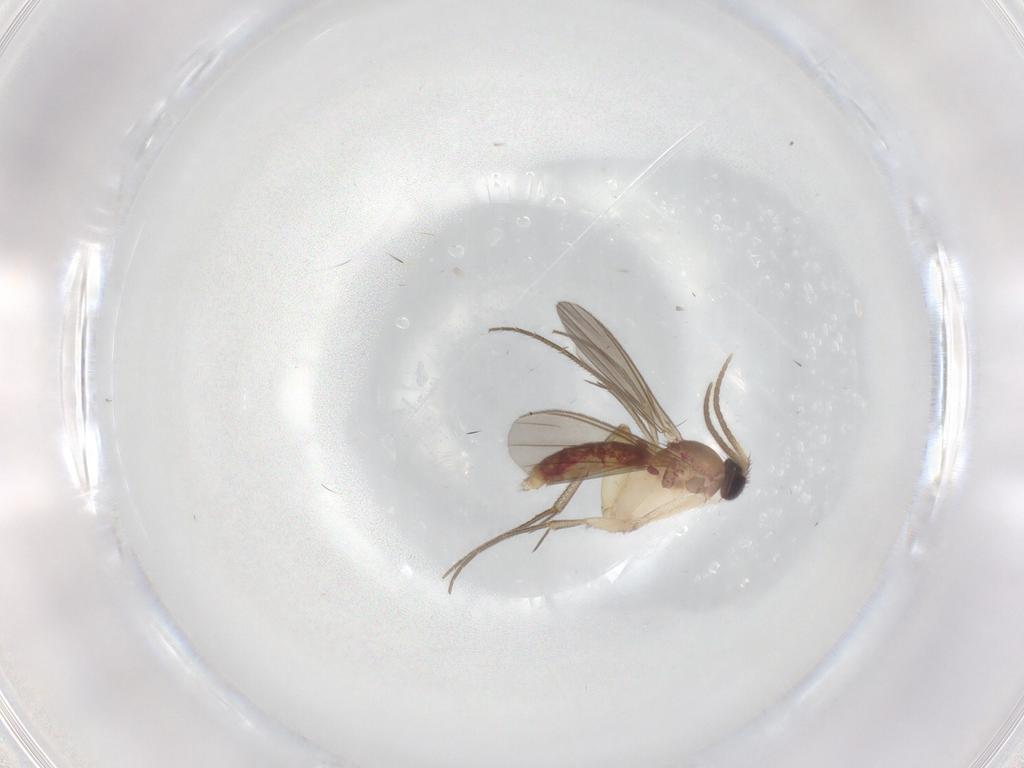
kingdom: Animalia
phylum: Arthropoda
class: Insecta
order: Diptera
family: Mycetophilidae
